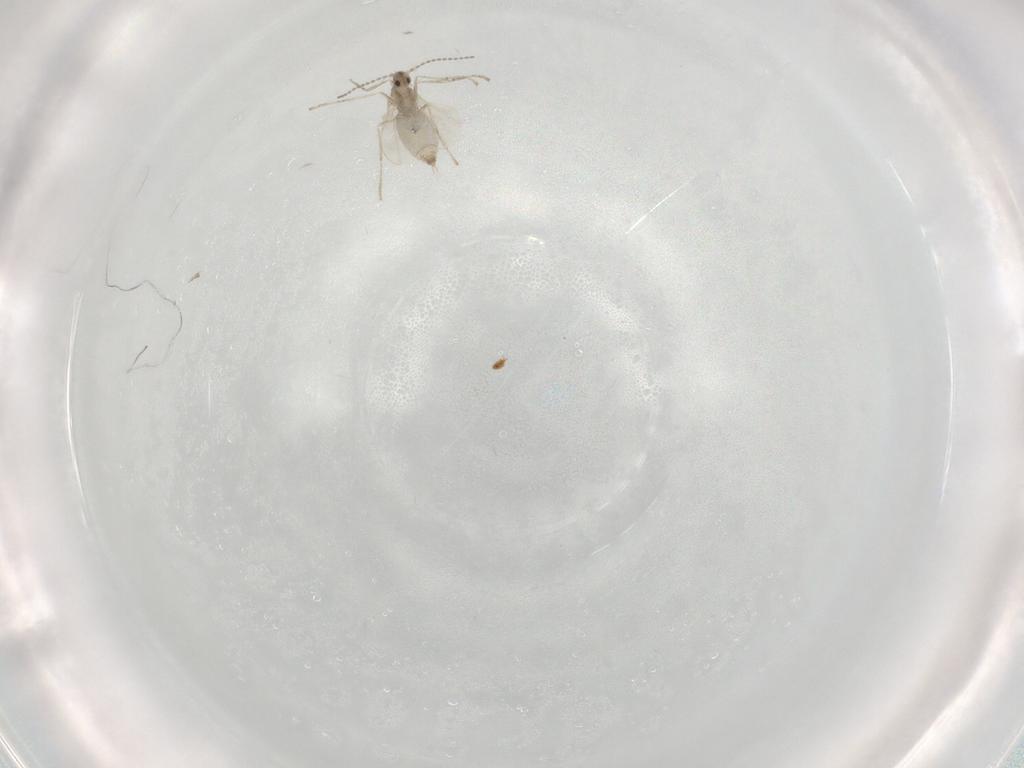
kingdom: Animalia
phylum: Arthropoda
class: Insecta
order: Diptera
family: Cecidomyiidae
